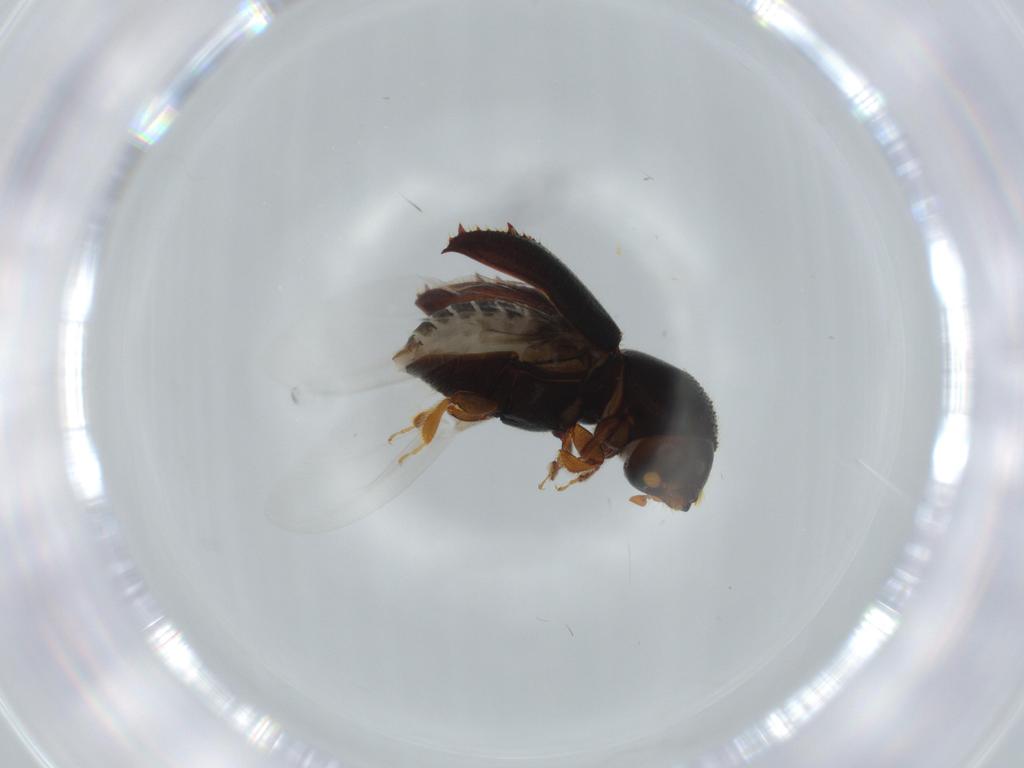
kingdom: Animalia
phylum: Arthropoda
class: Insecta
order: Coleoptera
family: Curculionidae
